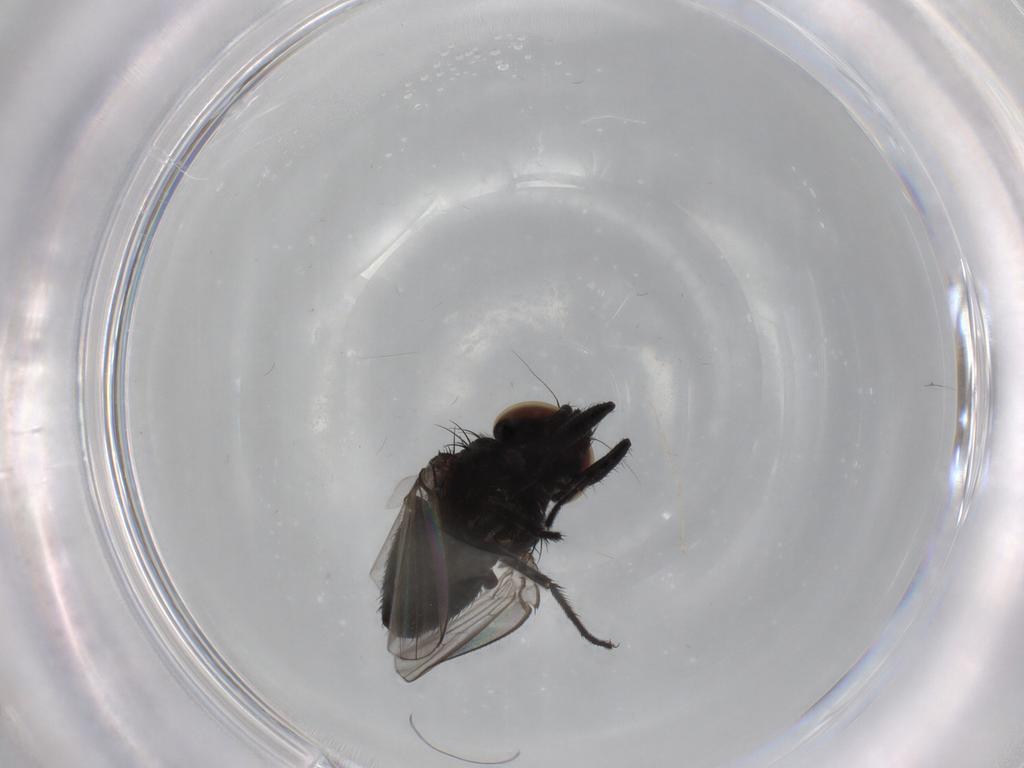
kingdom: Animalia
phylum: Arthropoda
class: Insecta
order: Diptera
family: Milichiidae
